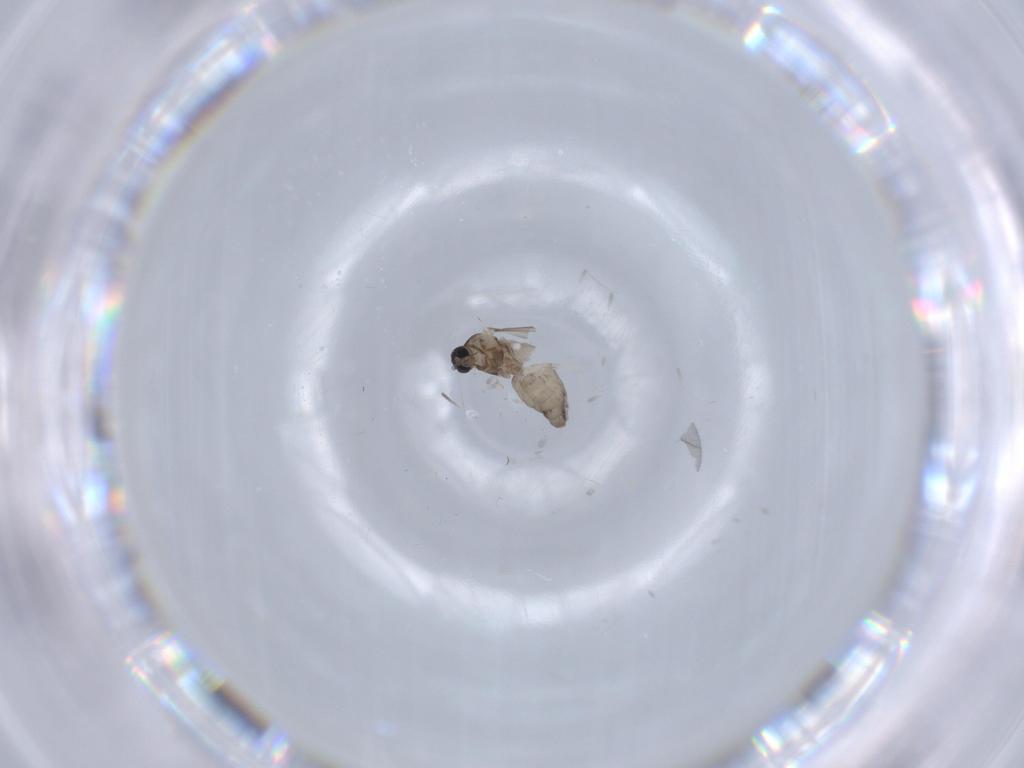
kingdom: Animalia
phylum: Arthropoda
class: Insecta
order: Diptera
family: Cecidomyiidae
